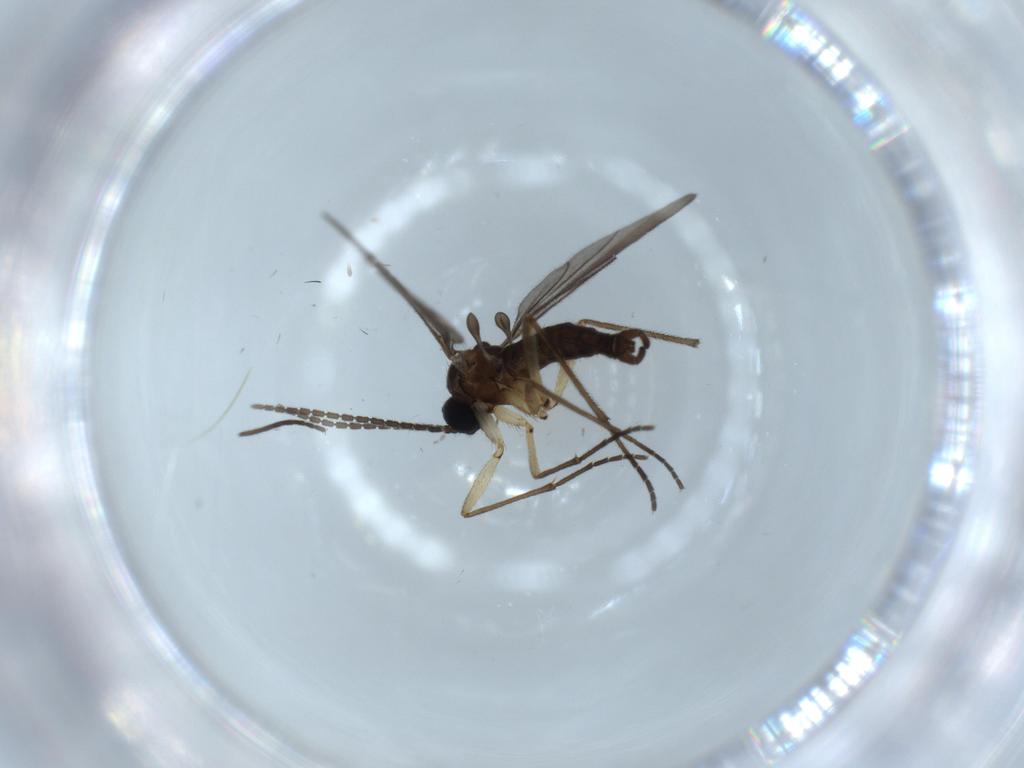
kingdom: Animalia
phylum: Arthropoda
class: Insecta
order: Diptera
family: Sciaridae
